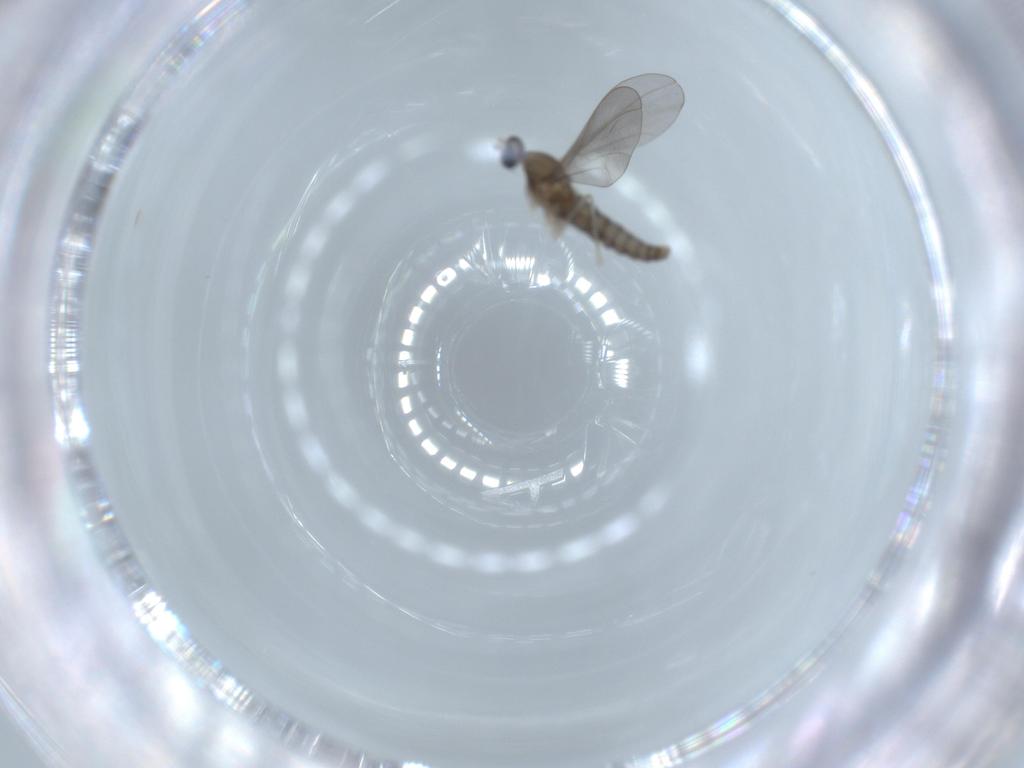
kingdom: Animalia
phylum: Arthropoda
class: Insecta
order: Diptera
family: Cecidomyiidae
